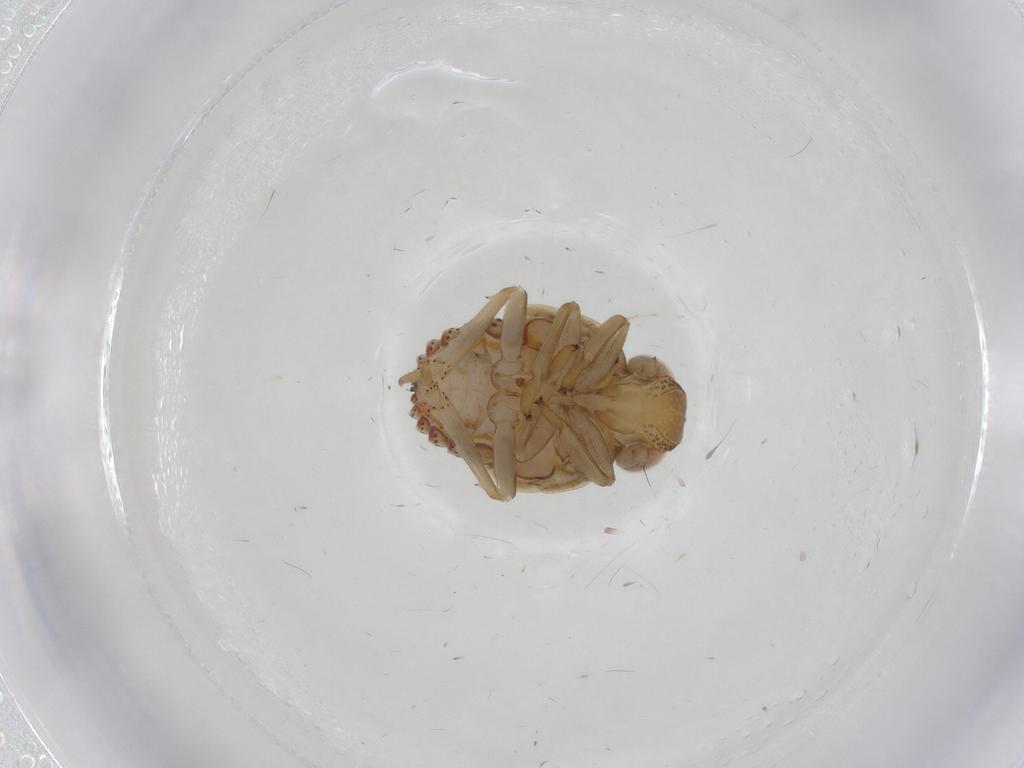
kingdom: Animalia
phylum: Arthropoda
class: Insecta
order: Hemiptera
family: Issidae
